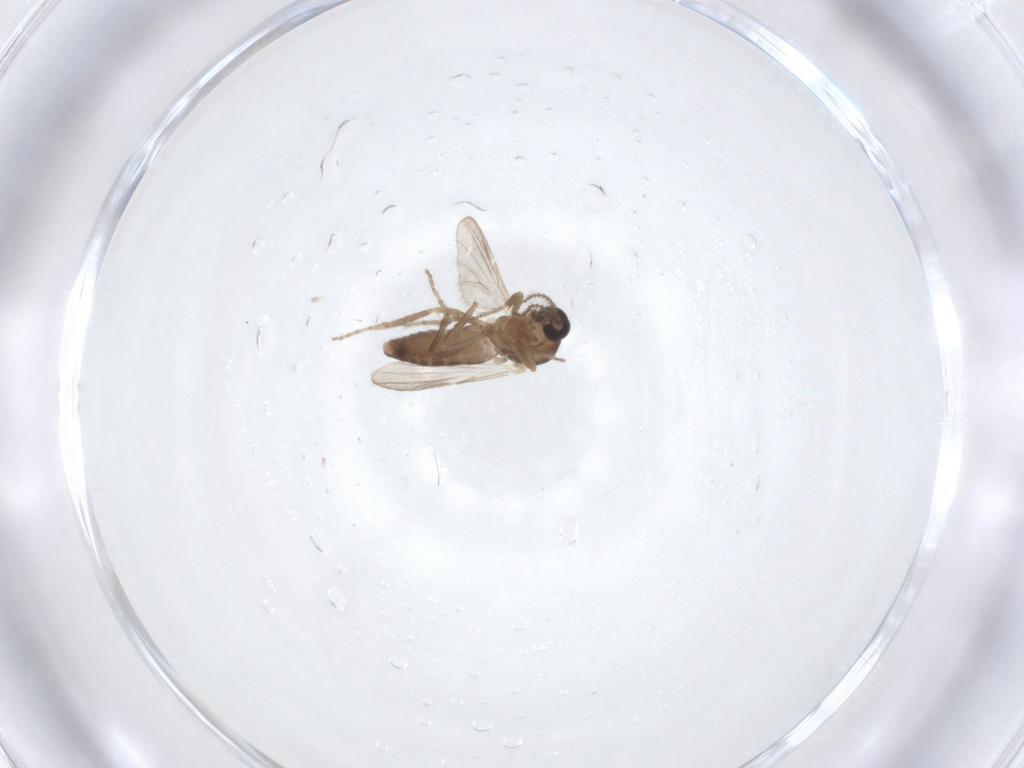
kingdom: Animalia
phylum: Arthropoda
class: Insecta
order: Diptera
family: Ceratopogonidae
